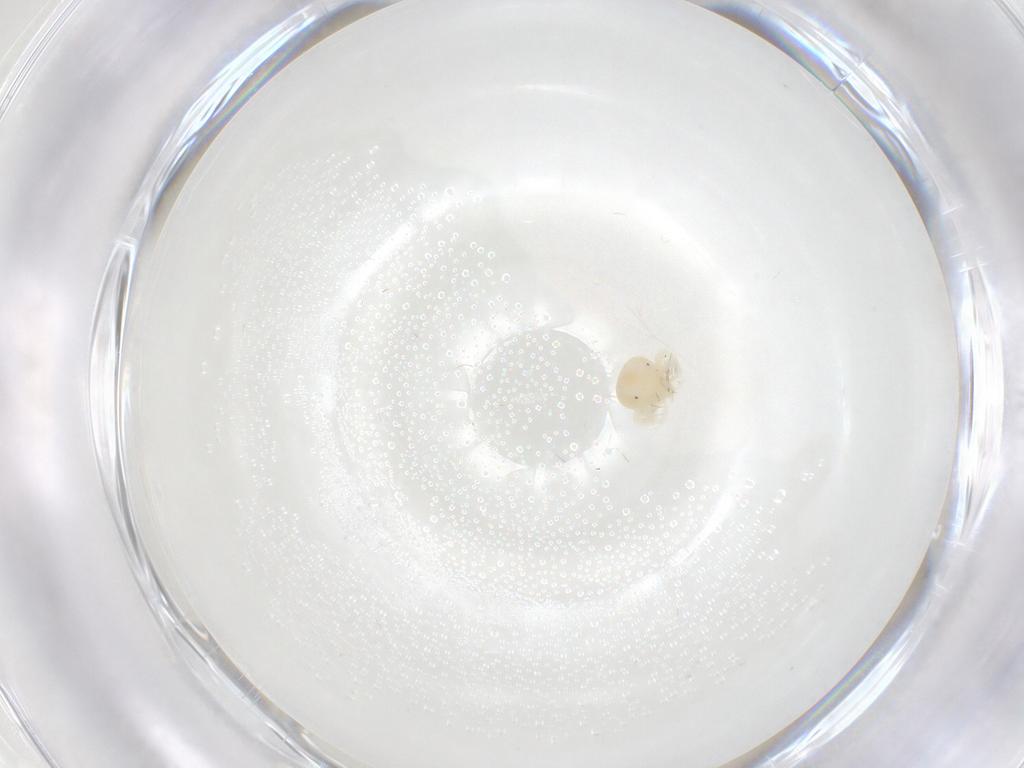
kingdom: Animalia
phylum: Arthropoda
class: Arachnida
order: Trombidiformes
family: Anystidae
